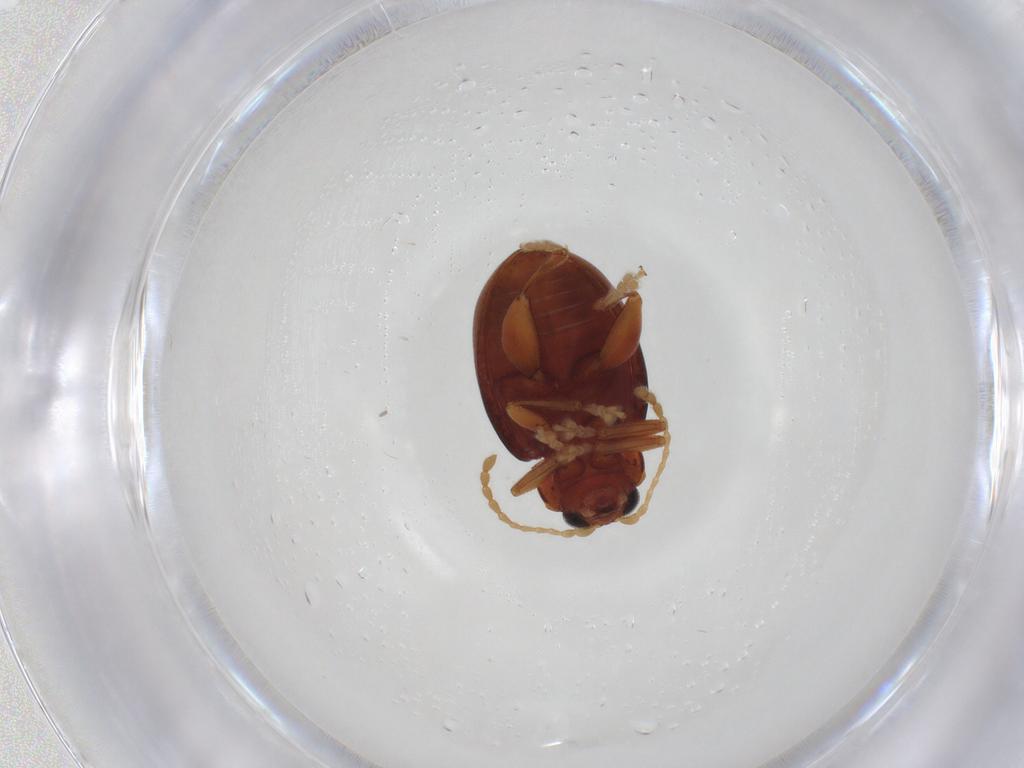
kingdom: Animalia
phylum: Arthropoda
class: Insecta
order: Coleoptera
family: Chrysomelidae
